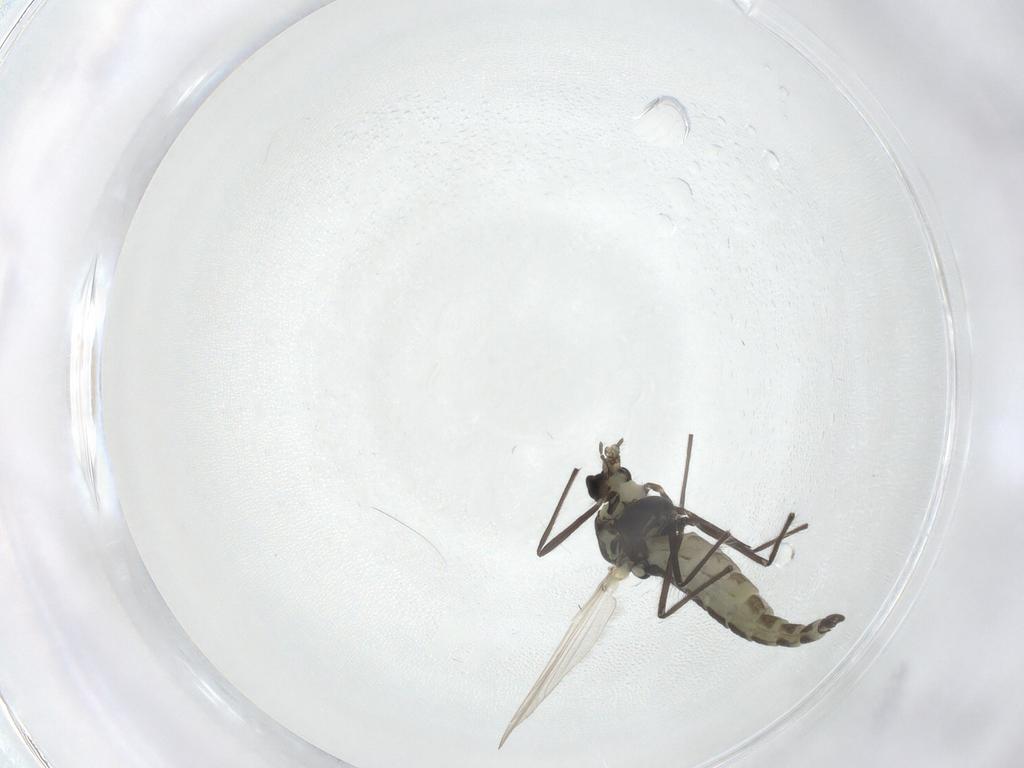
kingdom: Animalia
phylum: Arthropoda
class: Insecta
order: Diptera
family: Chironomidae
